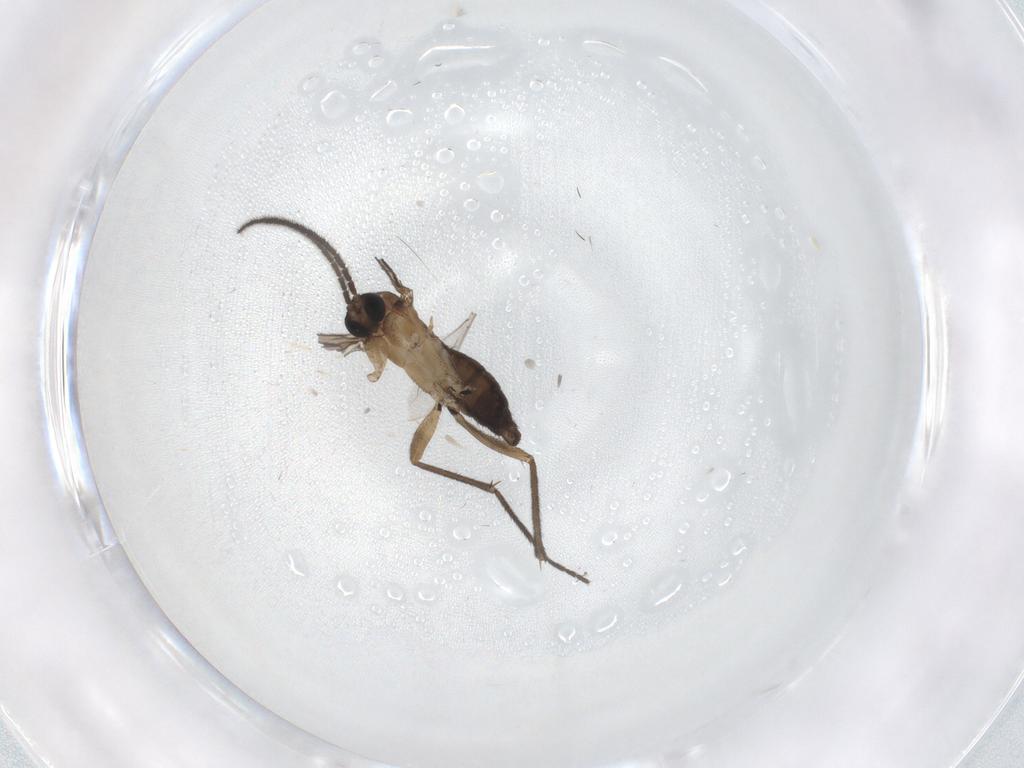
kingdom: Animalia
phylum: Arthropoda
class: Insecta
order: Diptera
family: Cecidomyiidae
